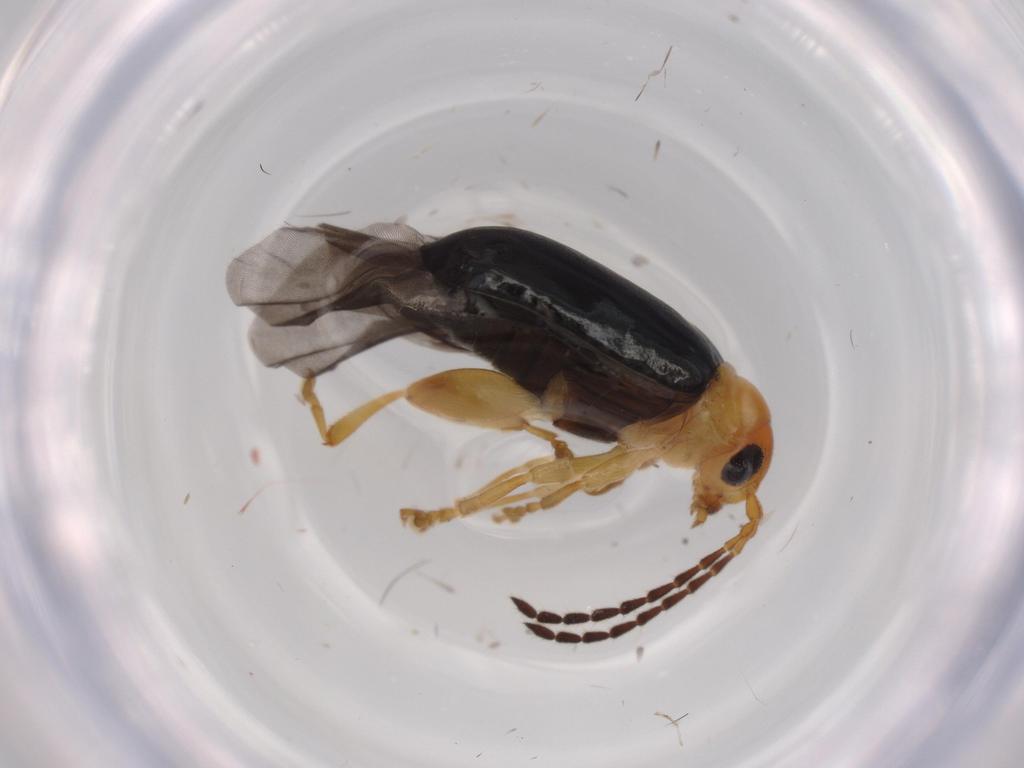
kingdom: Animalia
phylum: Arthropoda
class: Insecta
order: Coleoptera
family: Chrysomelidae
